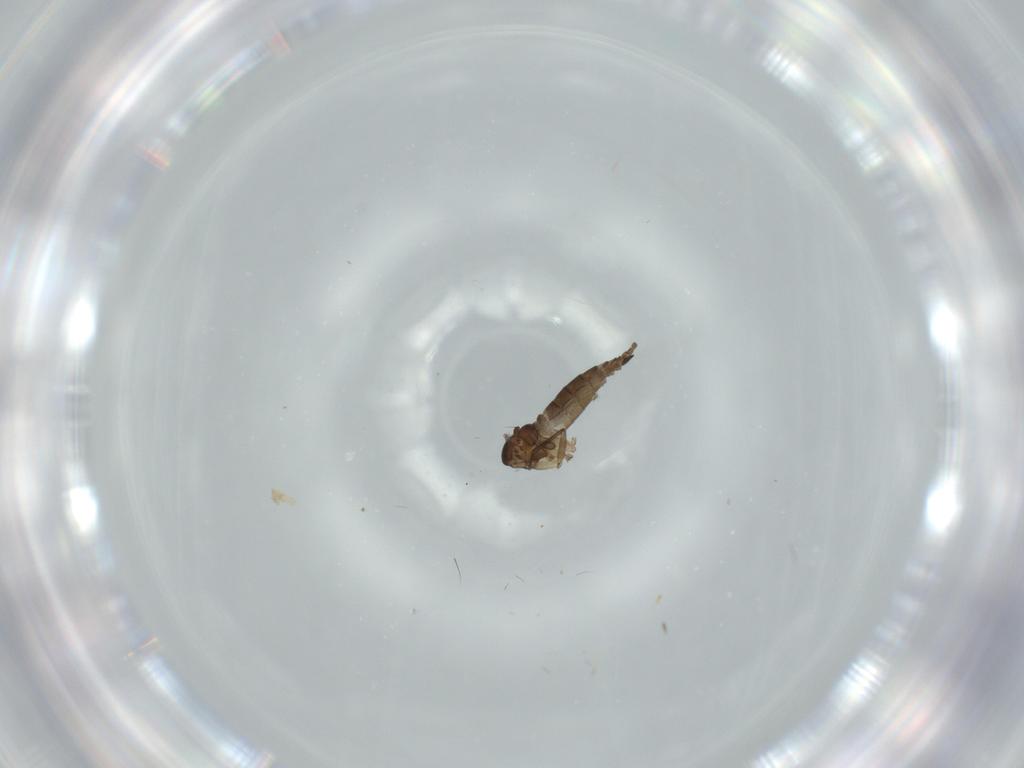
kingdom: Animalia
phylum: Arthropoda
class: Insecta
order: Diptera
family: Sciaridae
